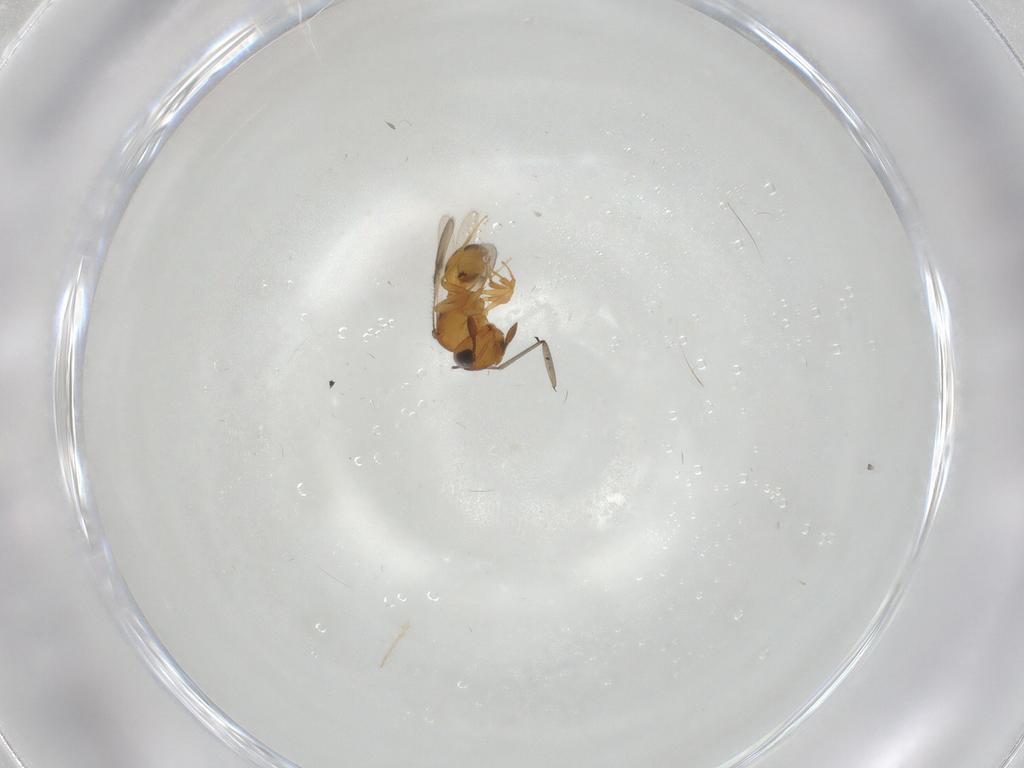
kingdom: Animalia
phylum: Arthropoda
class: Insecta
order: Hymenoptera
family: Scelionidae
